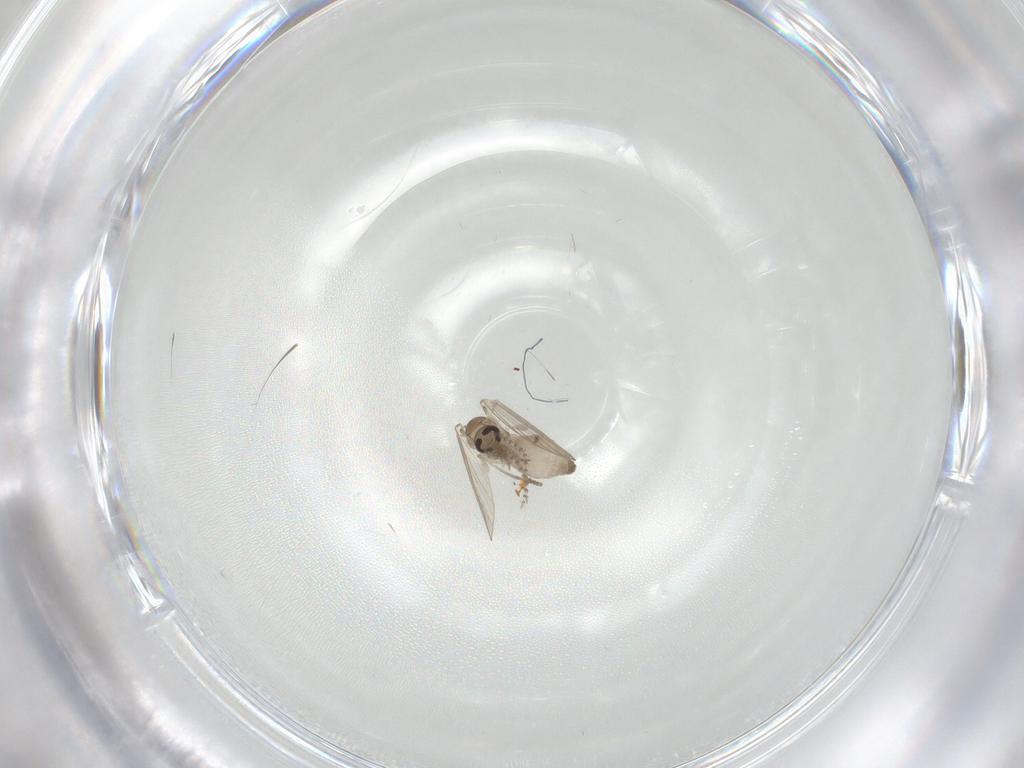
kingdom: Animalia
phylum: Arthropoda
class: Insecta
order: Diptera
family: Psychodidae
